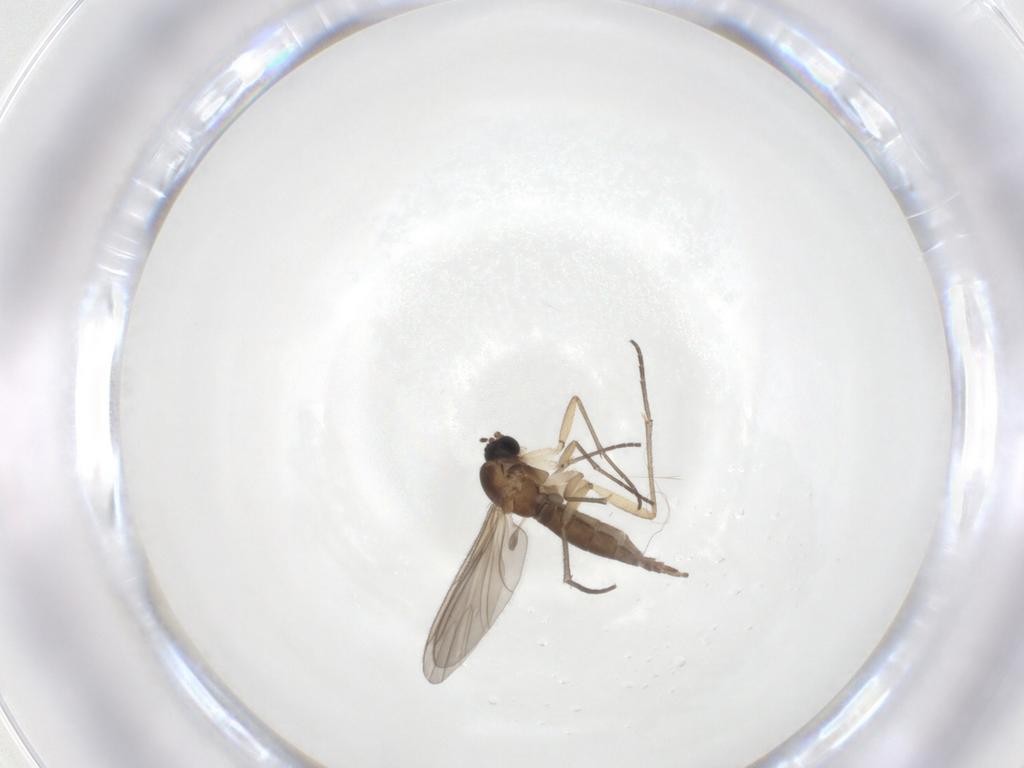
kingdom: Animalia
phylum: Arthropoda
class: Insecta
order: Diptera
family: Sciaridae
